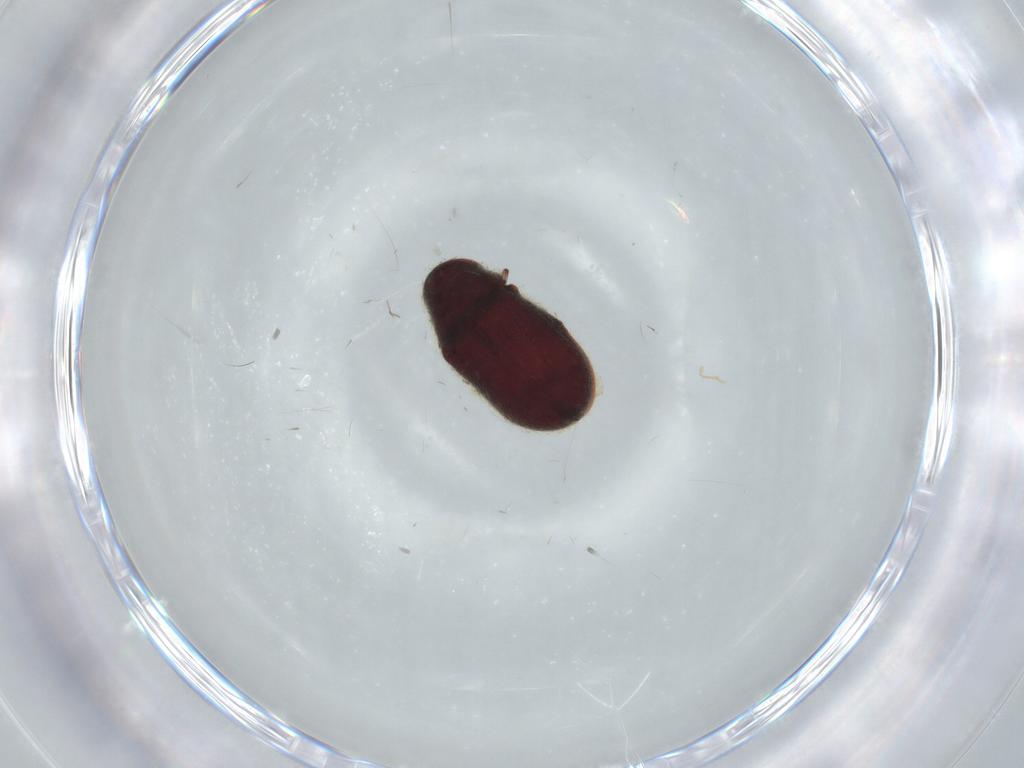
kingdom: Animalia
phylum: Arthropoda
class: Insecta
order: Coleoptera
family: Ptinidae
